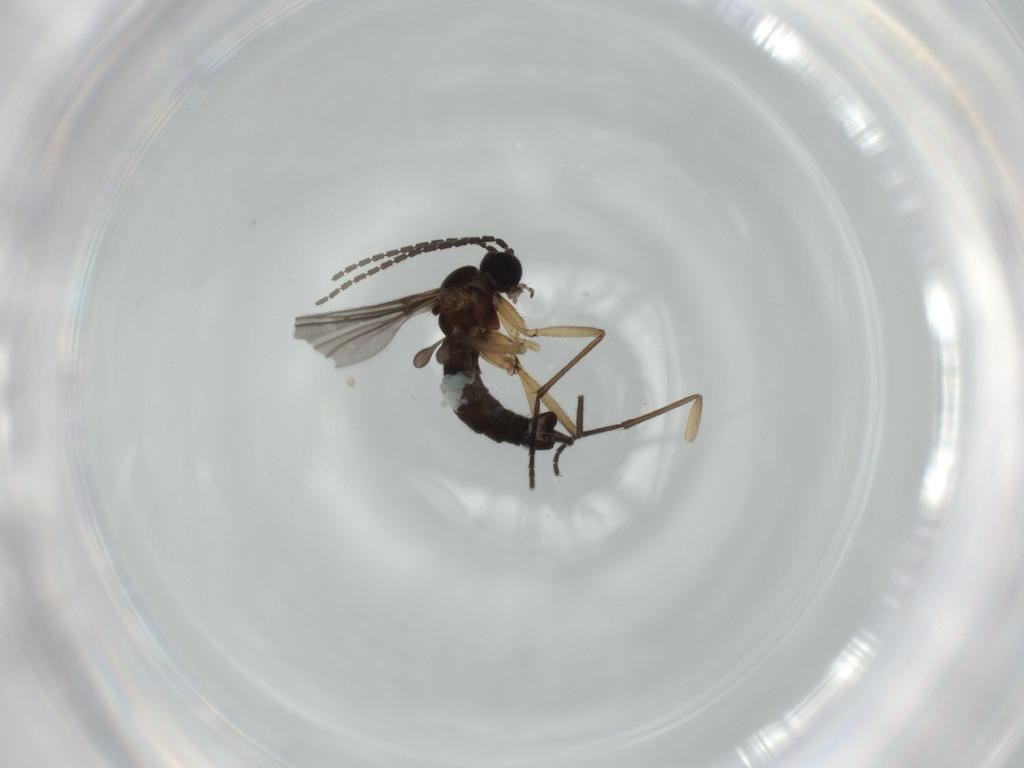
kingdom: Animalia
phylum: Arthropoda
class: Insecta
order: Diptera
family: Sciaridae
